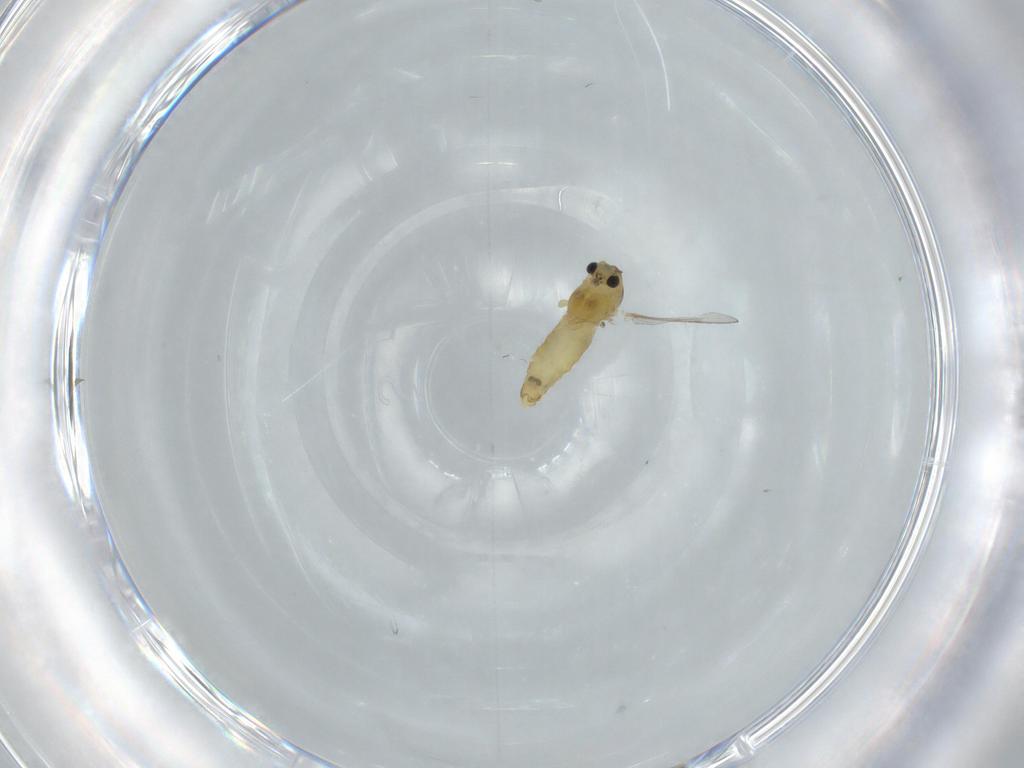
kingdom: Animalia
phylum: Arthropoda
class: Insecta
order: Diptera
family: Chironomidae
